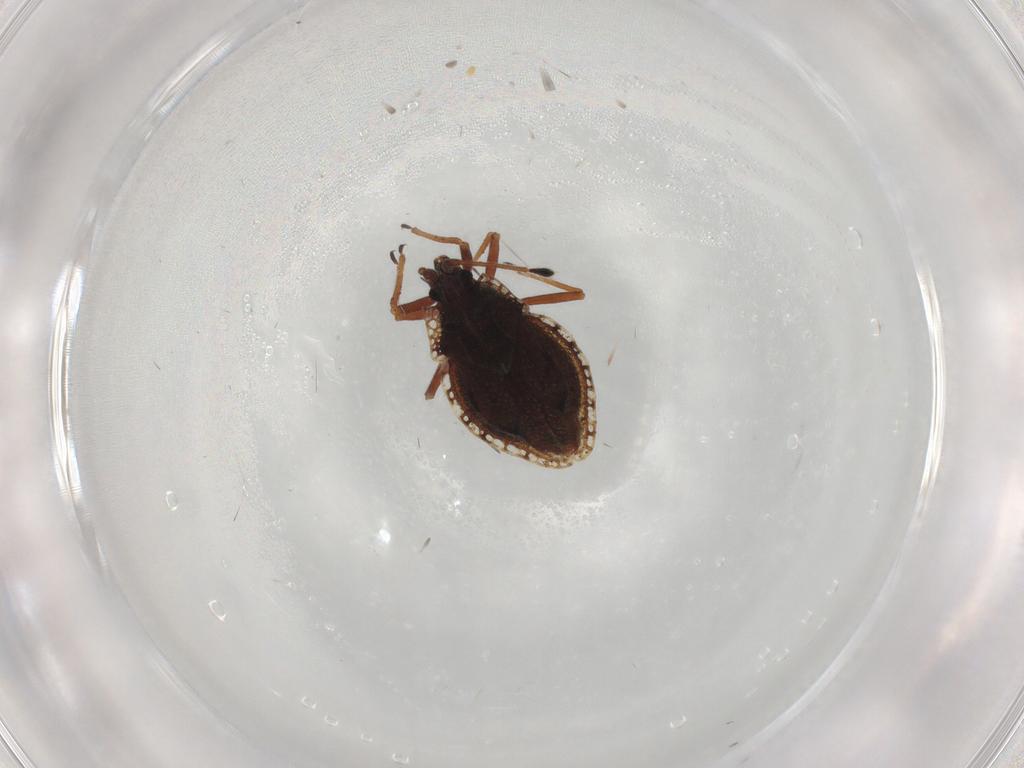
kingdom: Animalia
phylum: Arthropoda
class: Insecta
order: Hemiptera
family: Tingidae
